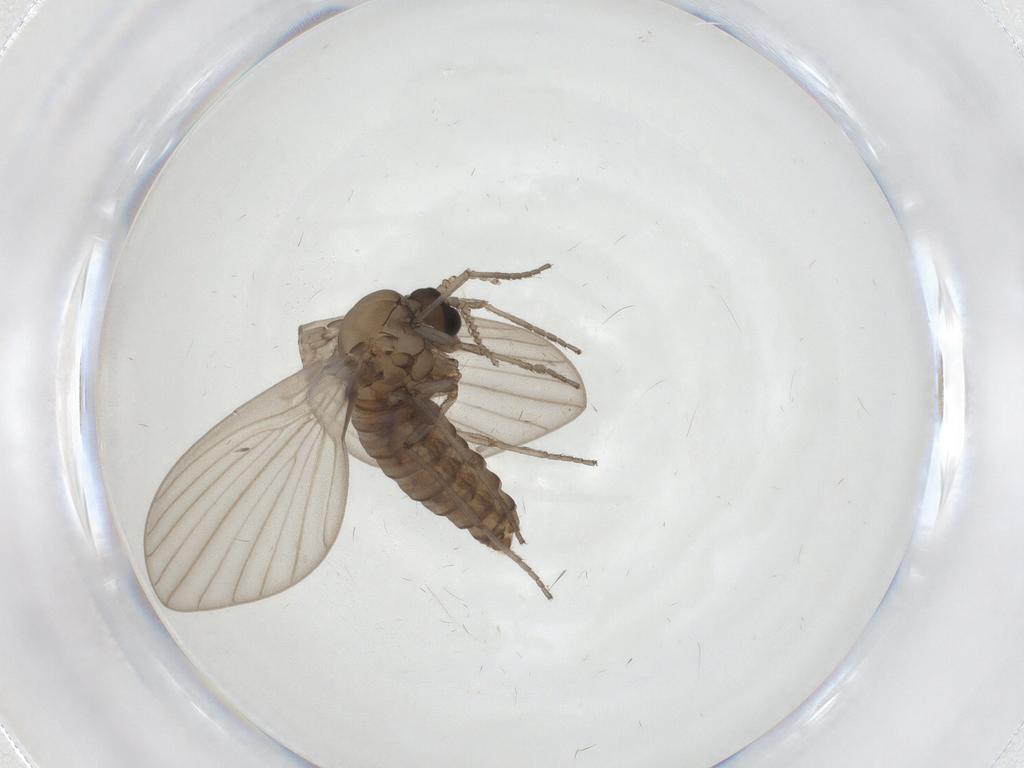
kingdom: Animalia
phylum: Arthropoda
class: Insecta
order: Diptera
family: Psychodidae
